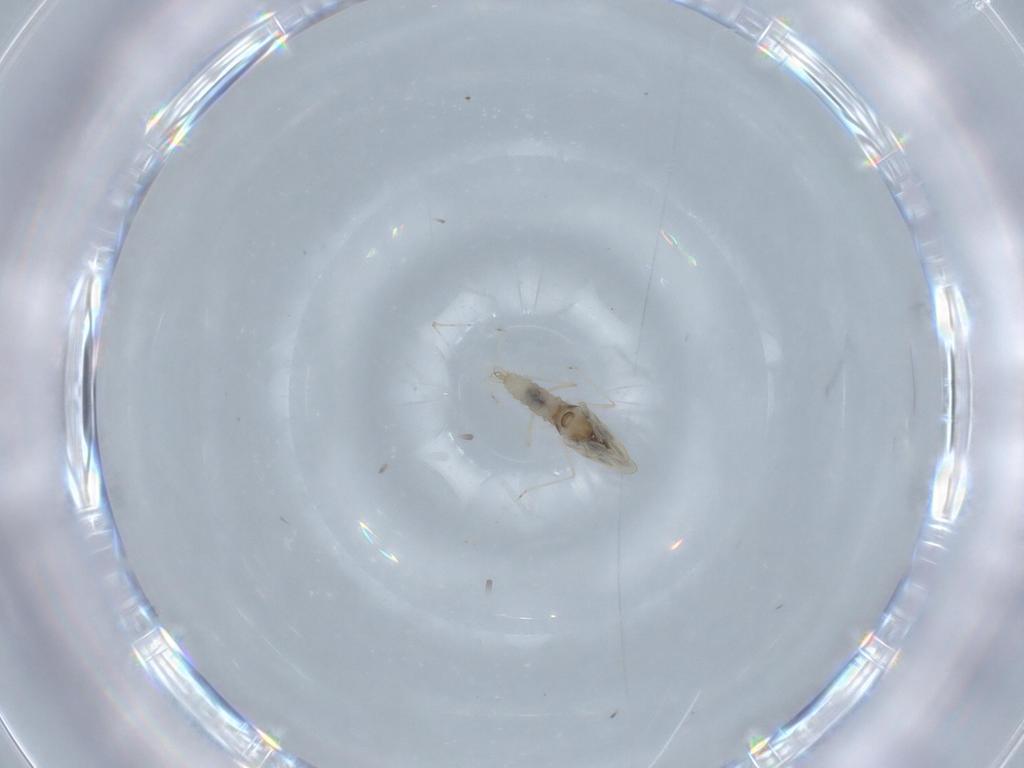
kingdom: Animalia
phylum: Arthropoda
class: Insecta
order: Diptera
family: Cecidomyiidae
